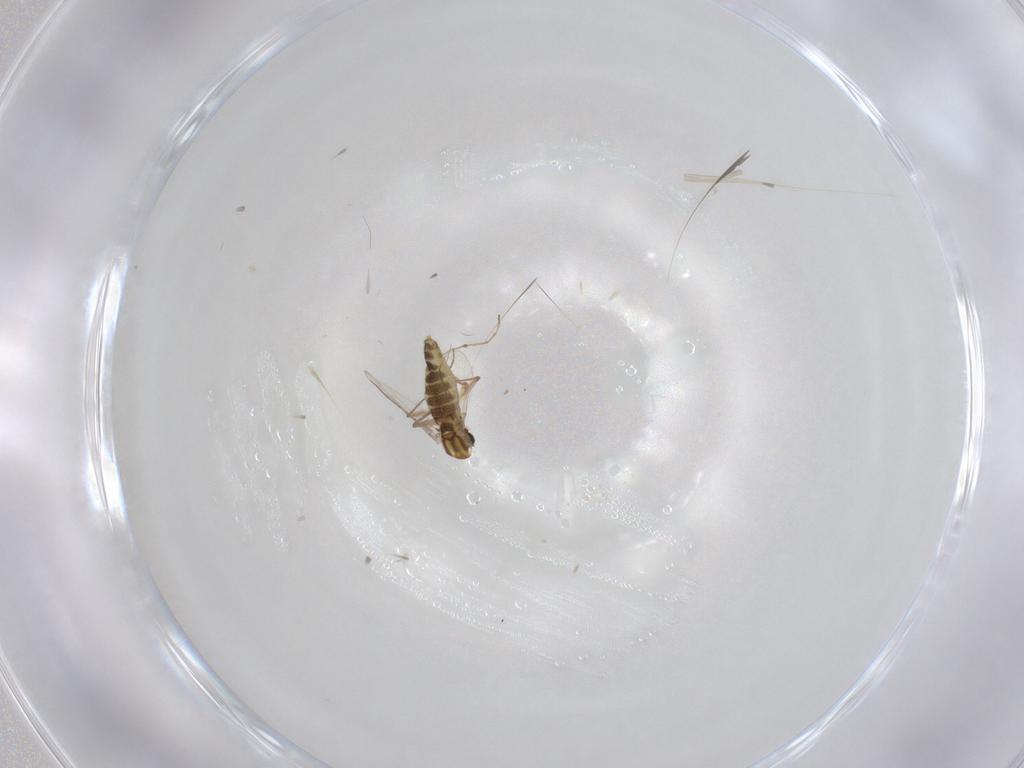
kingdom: Animalia
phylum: Arthropoda
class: Insecta
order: Diptera
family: Chironomidae
